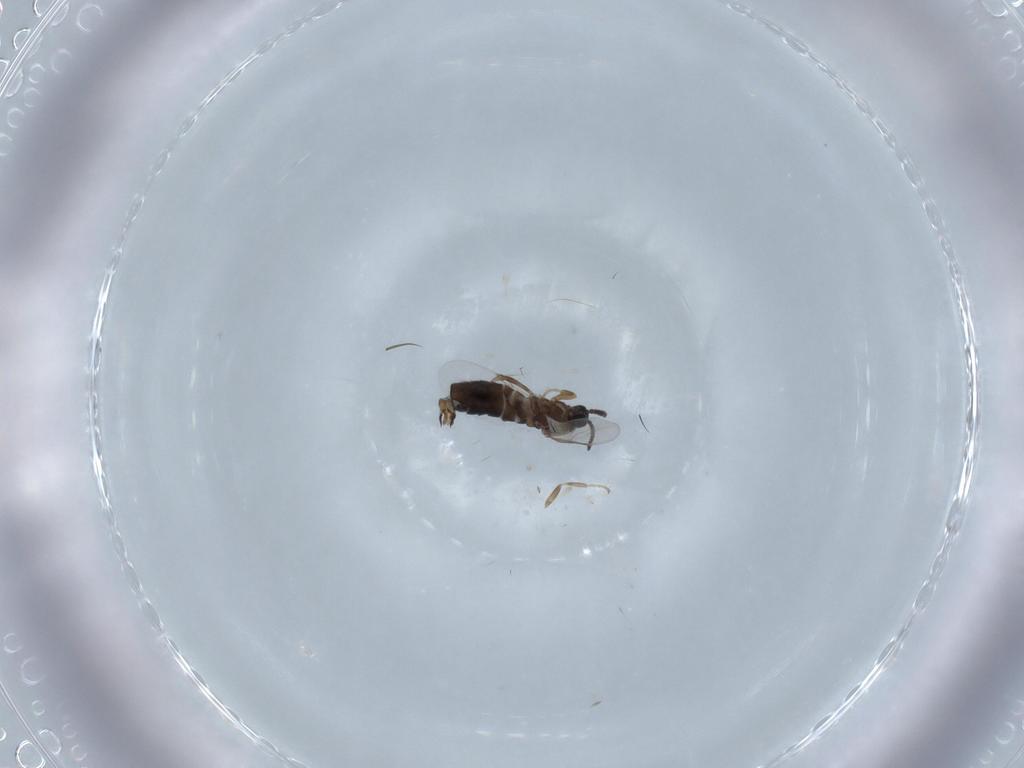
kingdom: Animalia
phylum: Arthropoda
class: Insecta
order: Diptera
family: Scatopsidae
